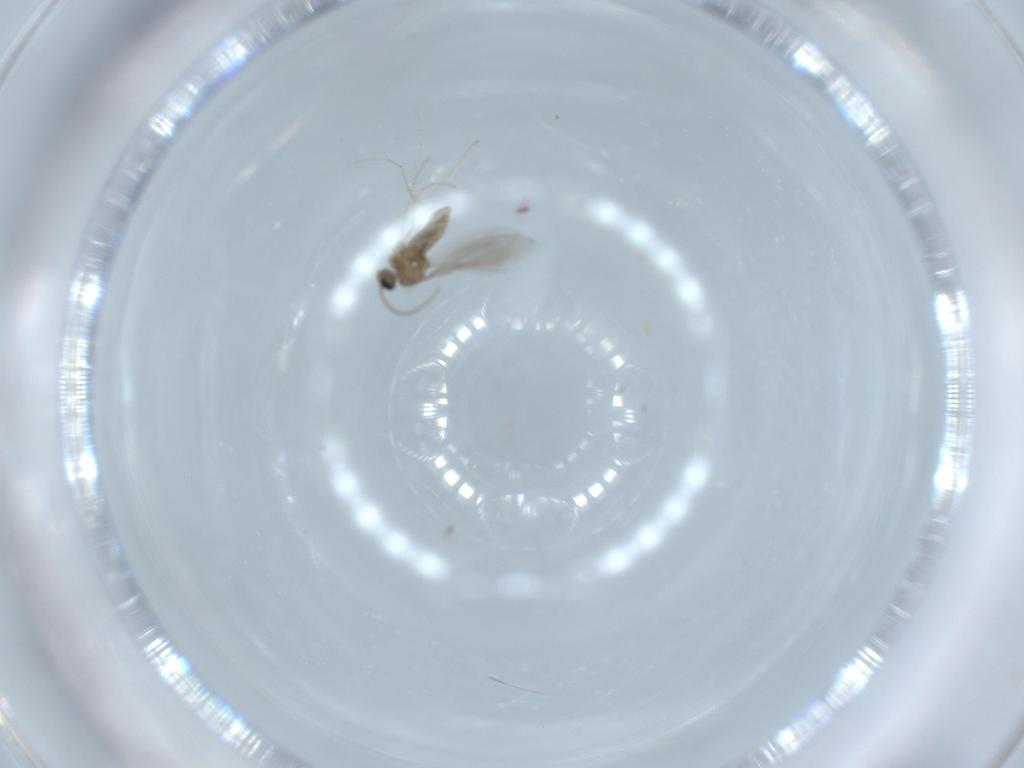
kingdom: Animalia
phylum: Arthropoda
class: Insecta
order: Diptera
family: Cecidomyiidae
